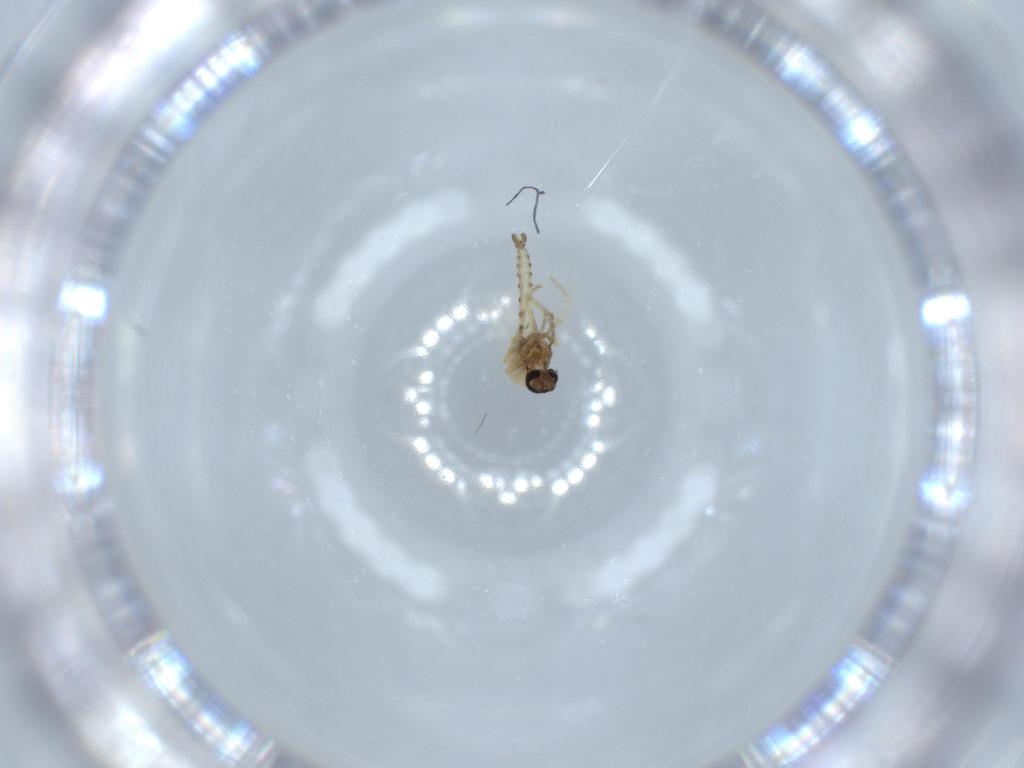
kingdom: Animalia
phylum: Arthropoda
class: Insecta
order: Diptera
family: Ceratopogonidae
